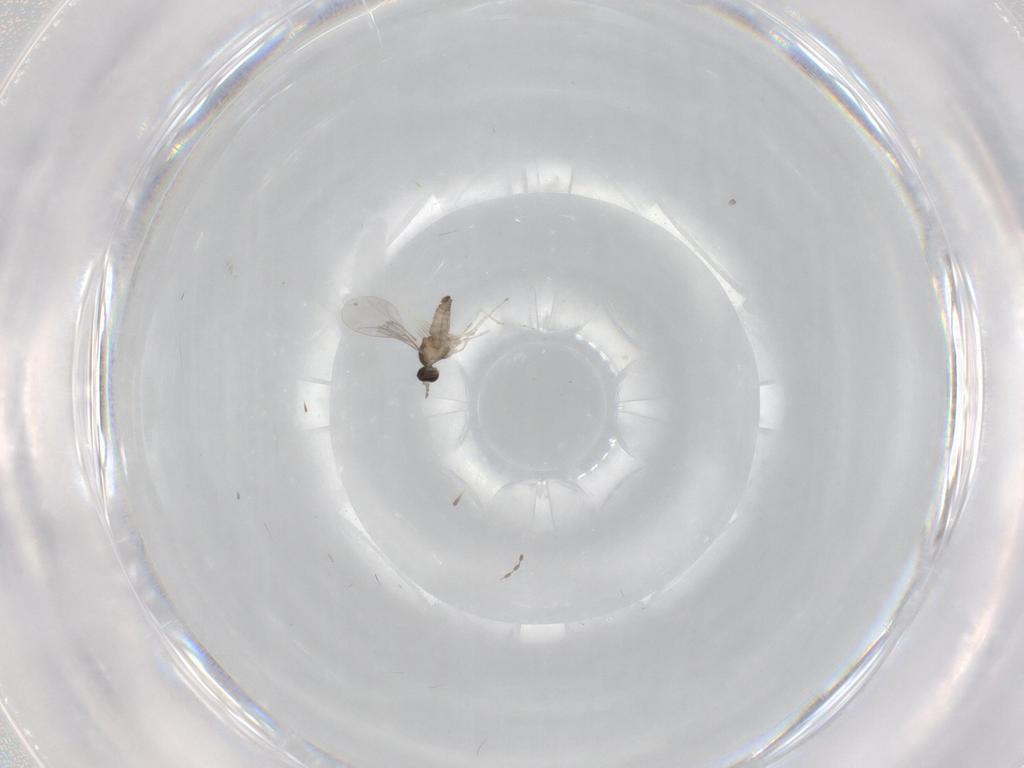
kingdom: Animalia
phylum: Arthropoda
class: Insecta
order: Diptera
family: Cecidomyiidae
